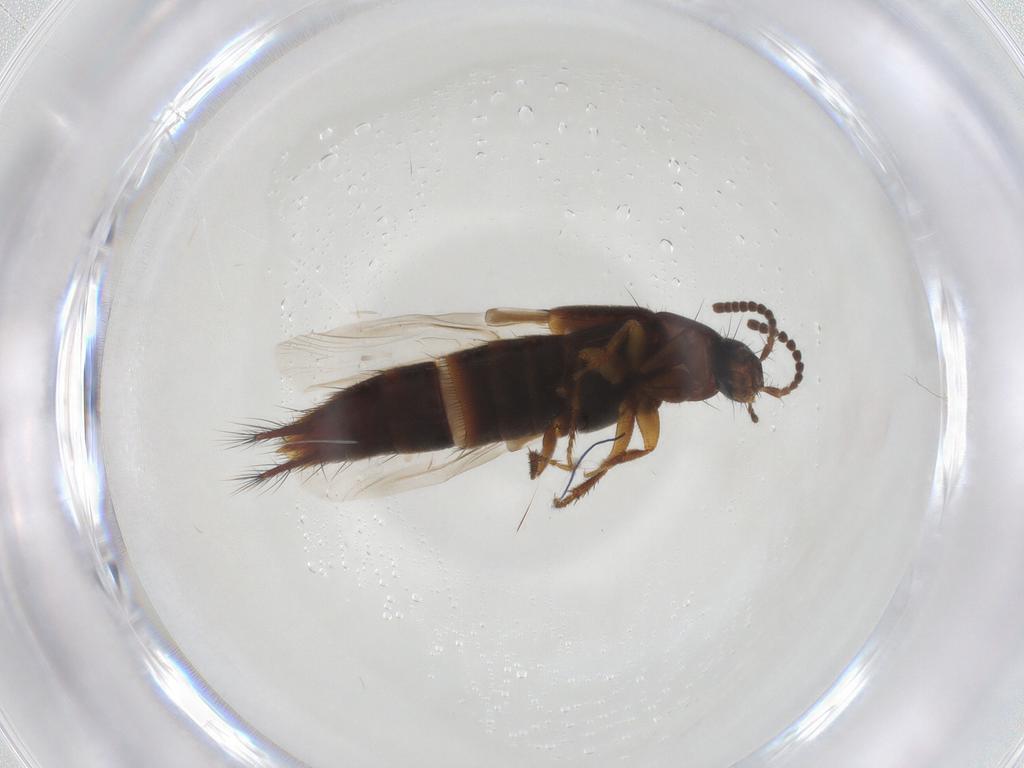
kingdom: Animalia
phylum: Arthropoda
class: Insecta
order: Coleoptera
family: Staphylinidae
